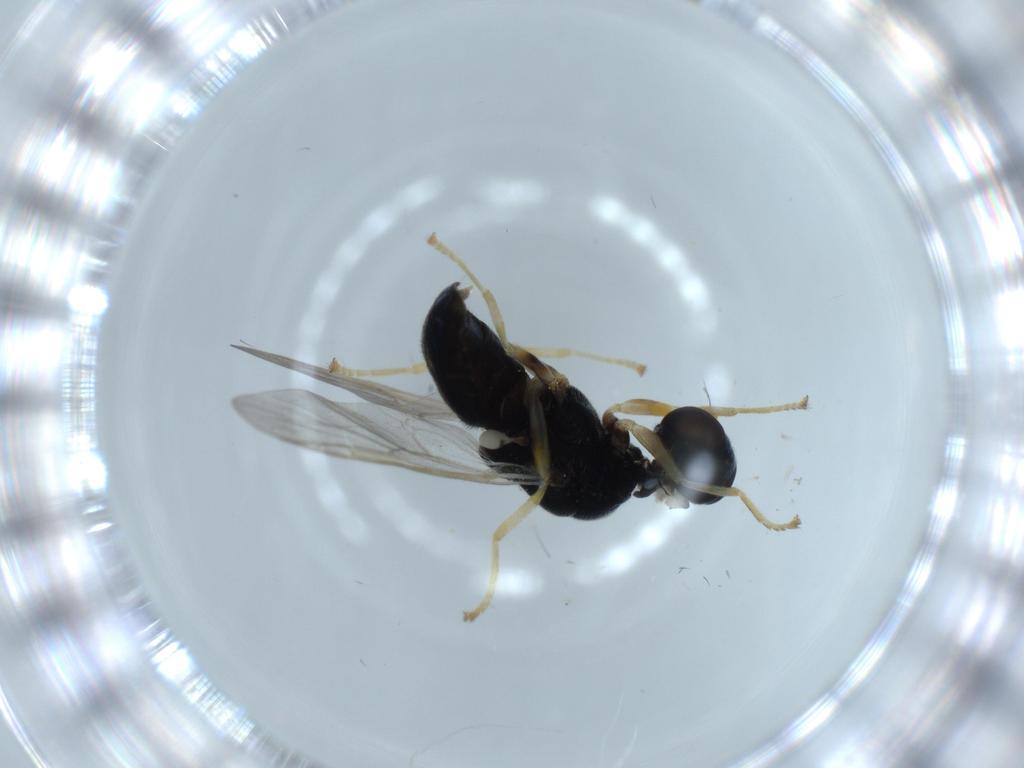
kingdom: Animalia
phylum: Arthropoda
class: Insecta
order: Diptera
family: Stratiomyidae
